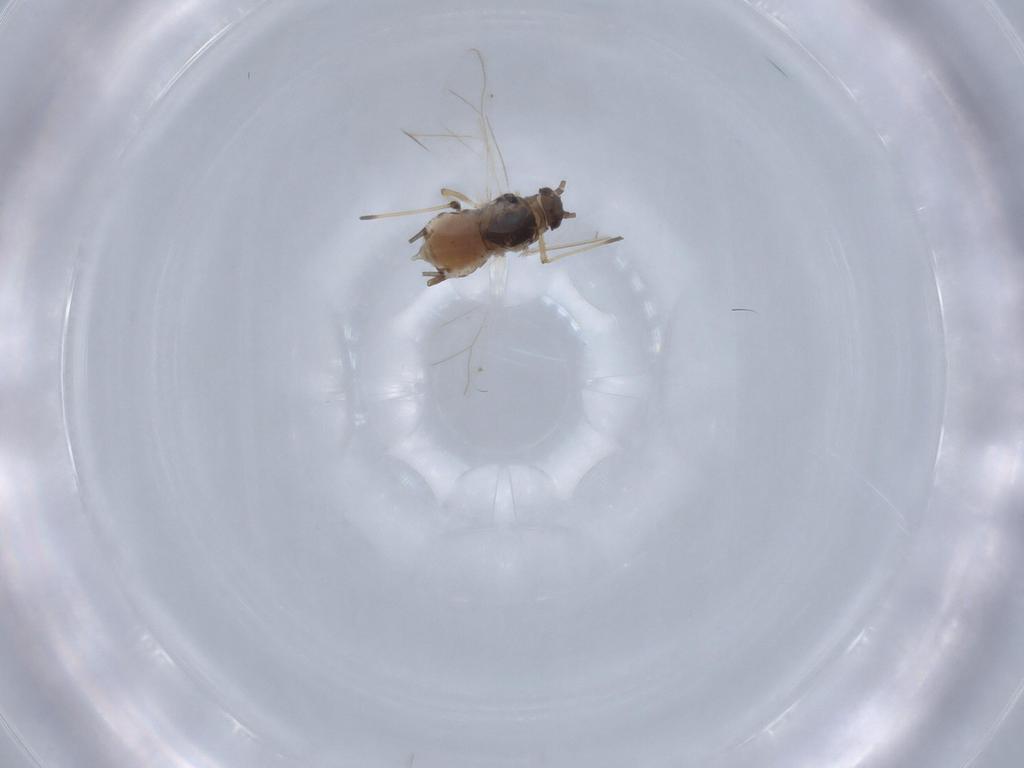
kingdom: Animalia
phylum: Arthropoda
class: Insecta
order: Hemiptera
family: Aphididae
